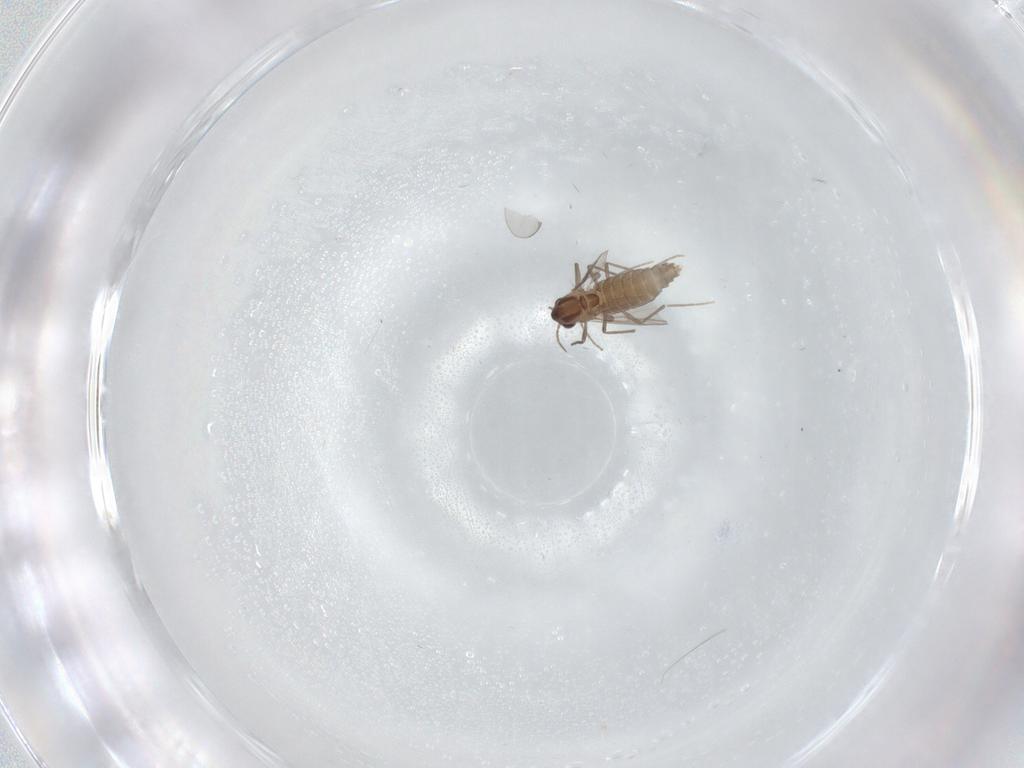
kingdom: Animalia
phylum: Arthropoda
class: Insecta
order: Diptera
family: Chironomidae
